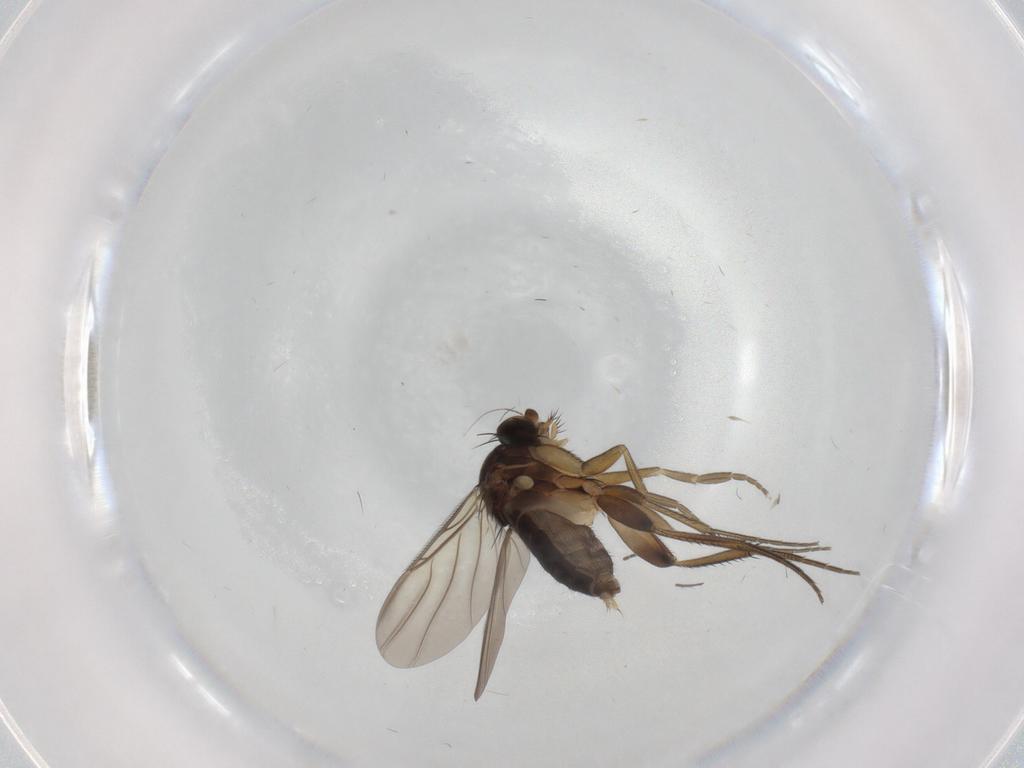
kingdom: Animalia
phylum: Arthropoda
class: Insecta
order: Diptera
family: Phoridae
